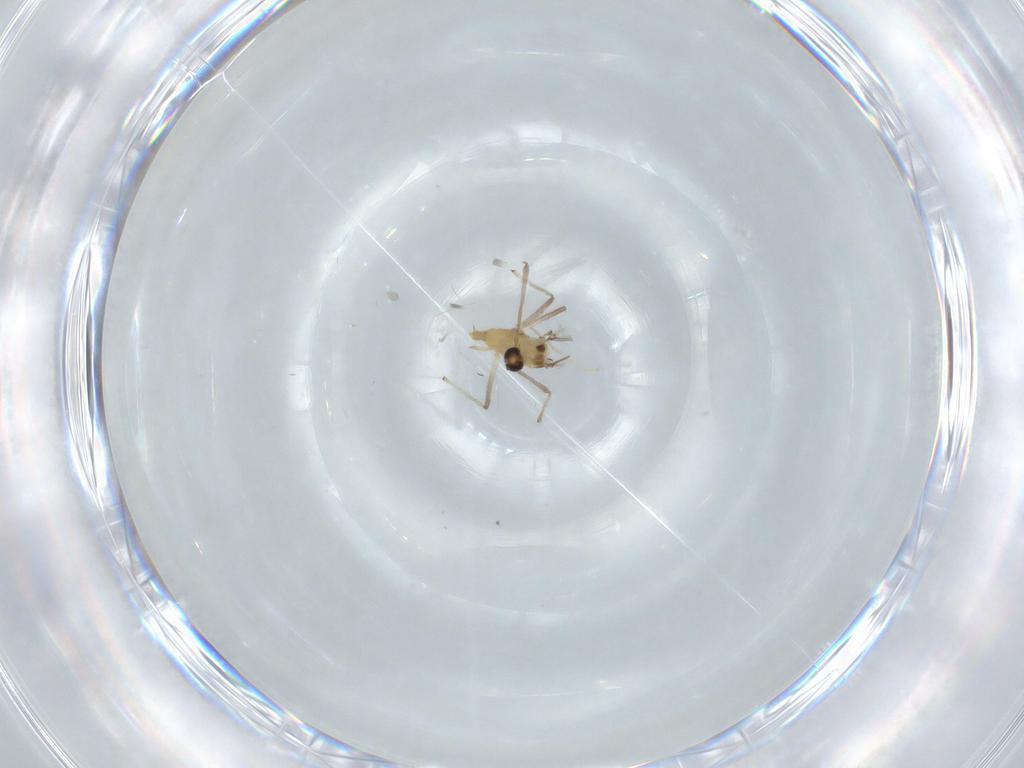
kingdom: Animalia
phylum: Arthropoda
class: Insecta
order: Diptera
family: Chironomidae
